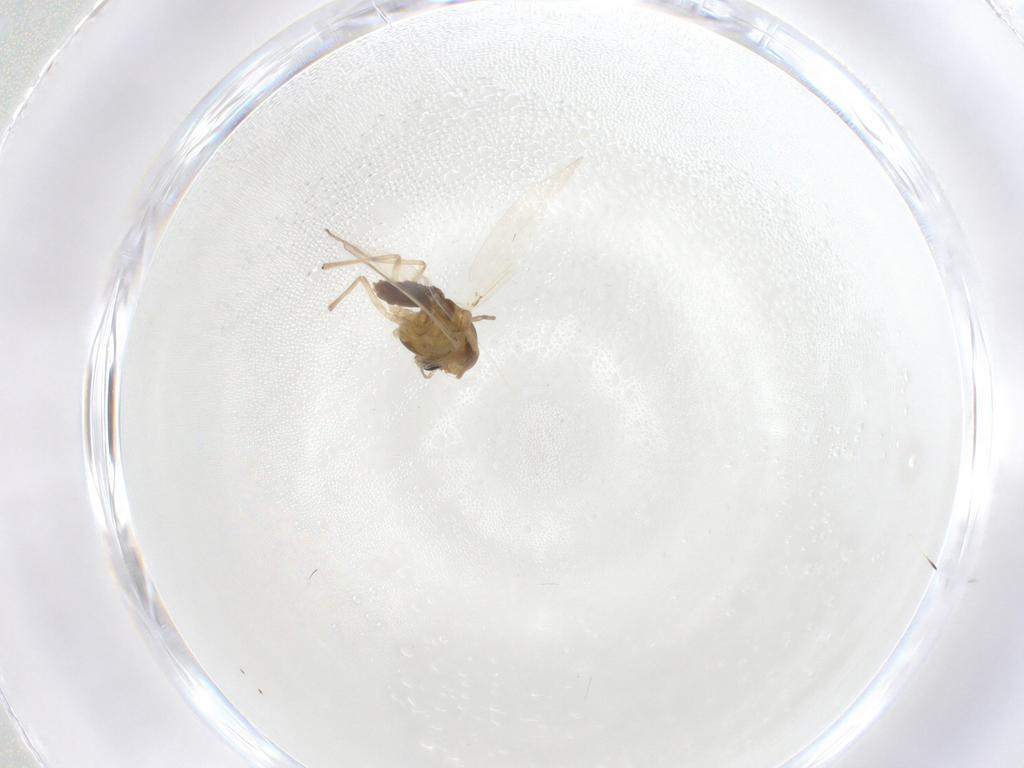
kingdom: Animalia
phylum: Arthropoda
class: Insecta
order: Diptera
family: Chironomidae
